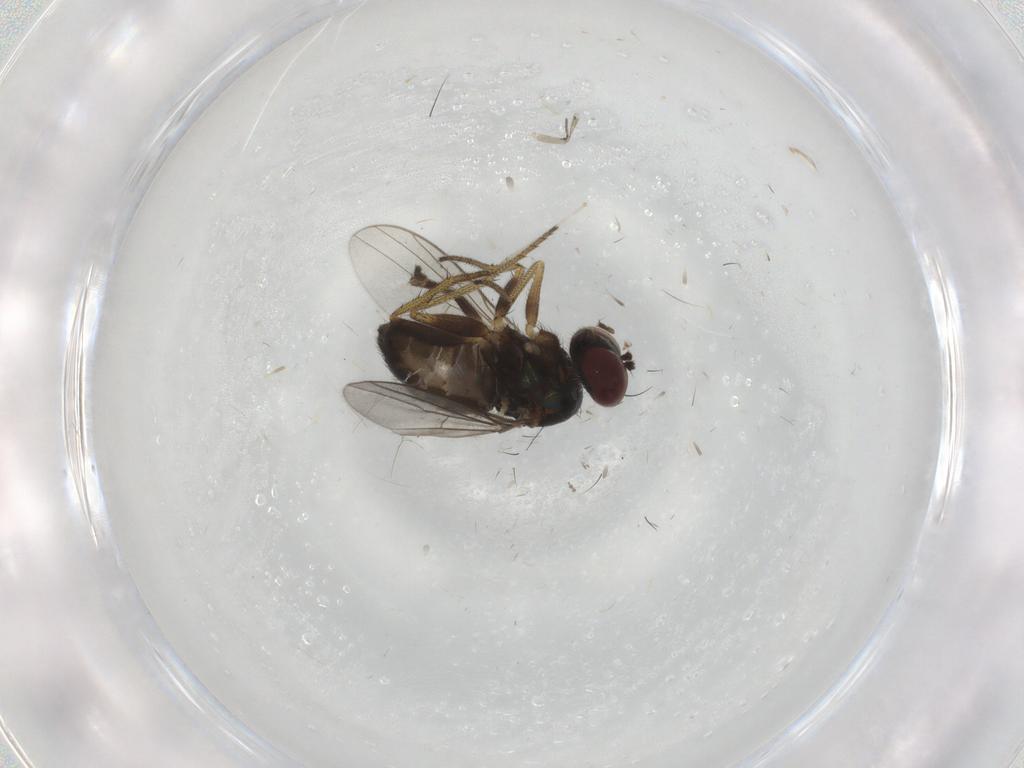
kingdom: Animalia
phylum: Arthropoda
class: Insecta
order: Diptera
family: Dolichopodidae
